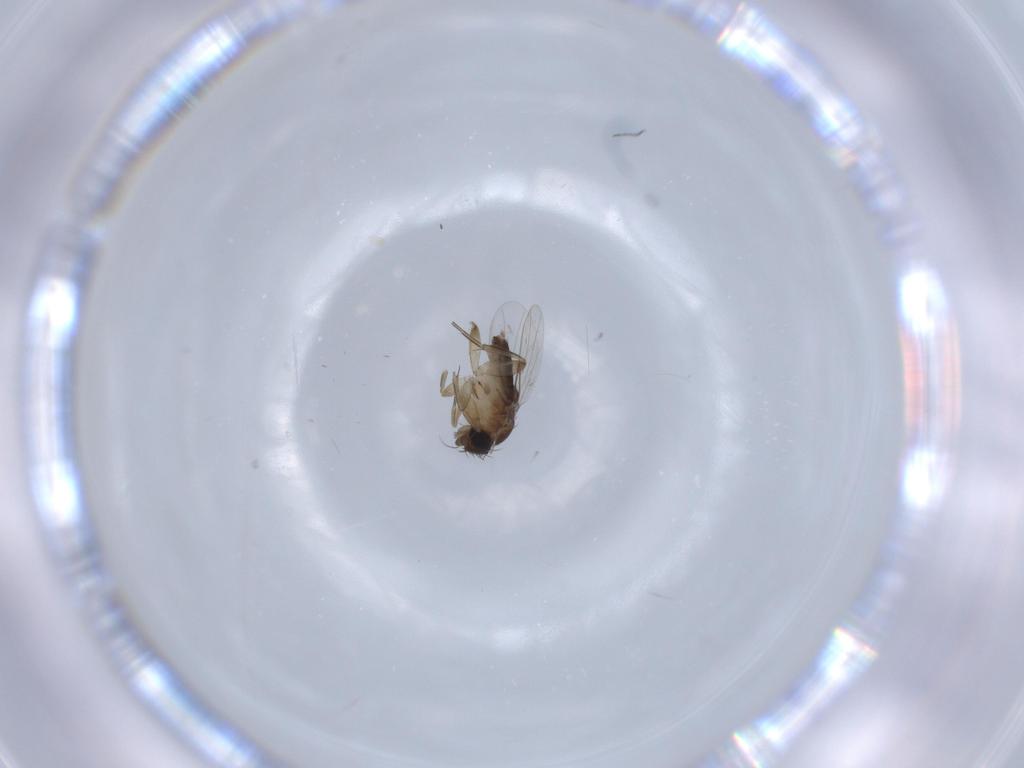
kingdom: Animalia
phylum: Arthropoda
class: Insecta
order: Diptera
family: Phoridae
